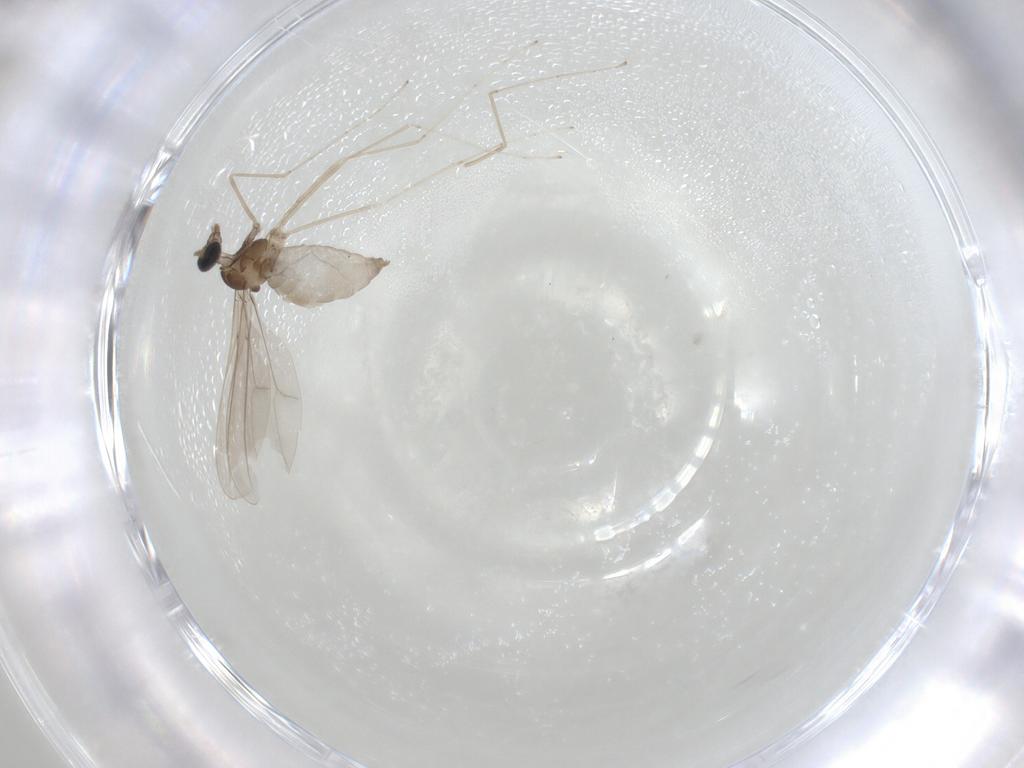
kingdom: Animalia
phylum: Arthropoda
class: Insecta
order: Diptera
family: Cecidomyiidae
